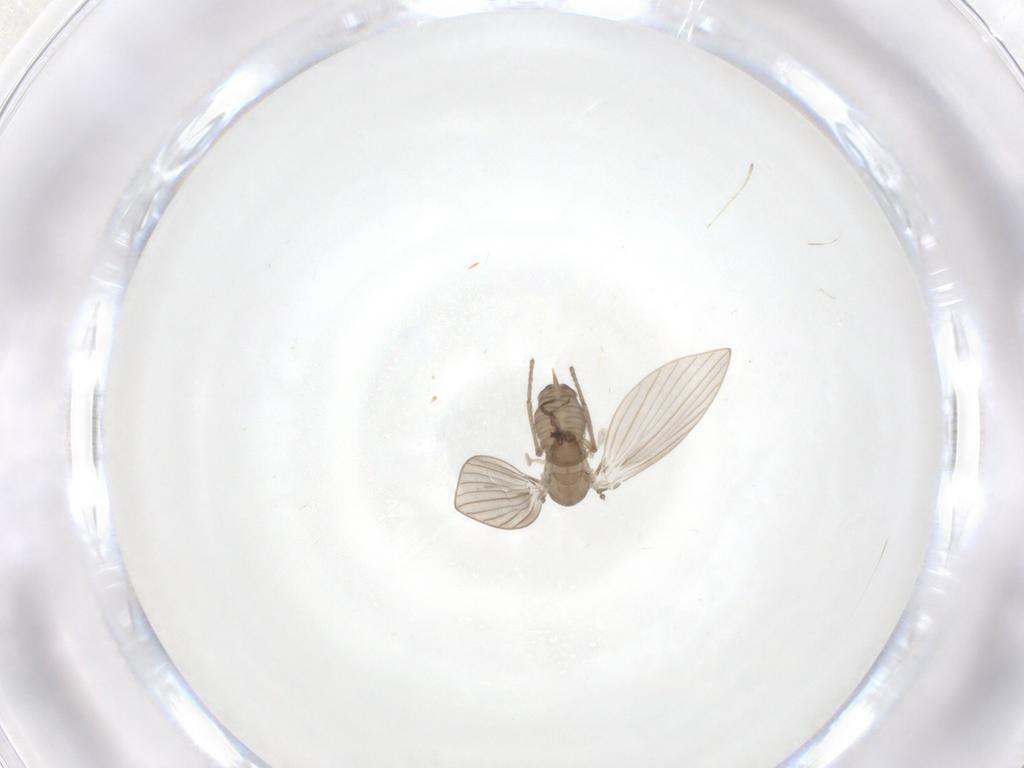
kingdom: Animalia
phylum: Arthropoda
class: Insecta
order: Diptera
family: Psychodidae
